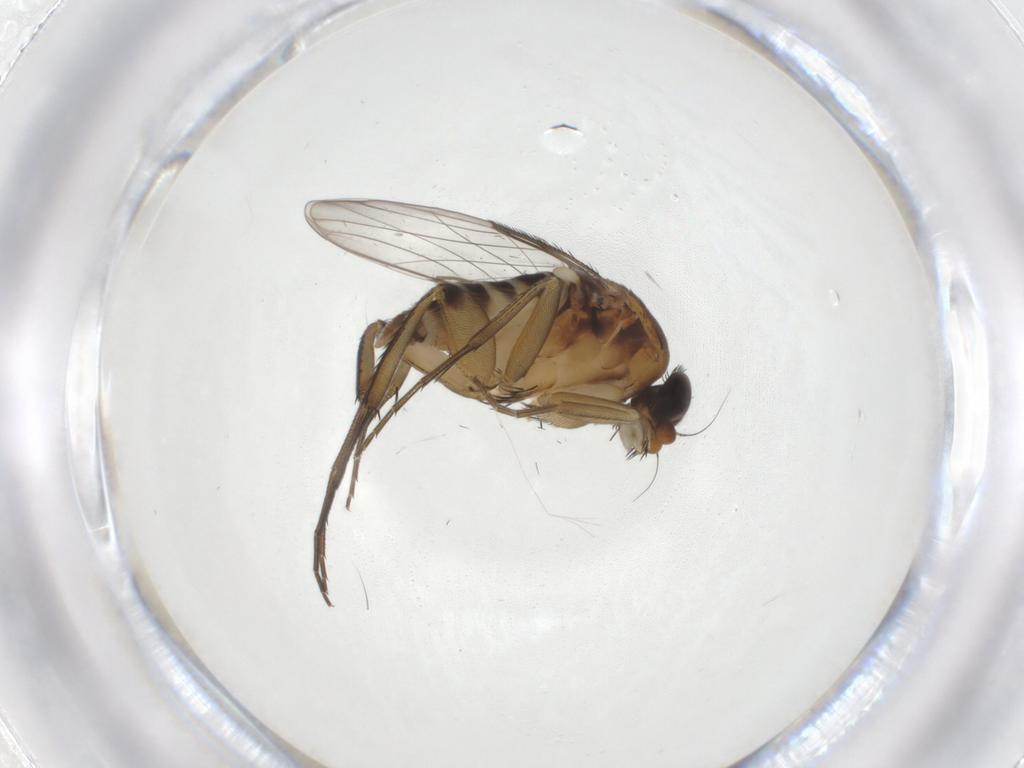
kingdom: Animalia
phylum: Arthropoda
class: Insecta
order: Diptera
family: Phoridae
